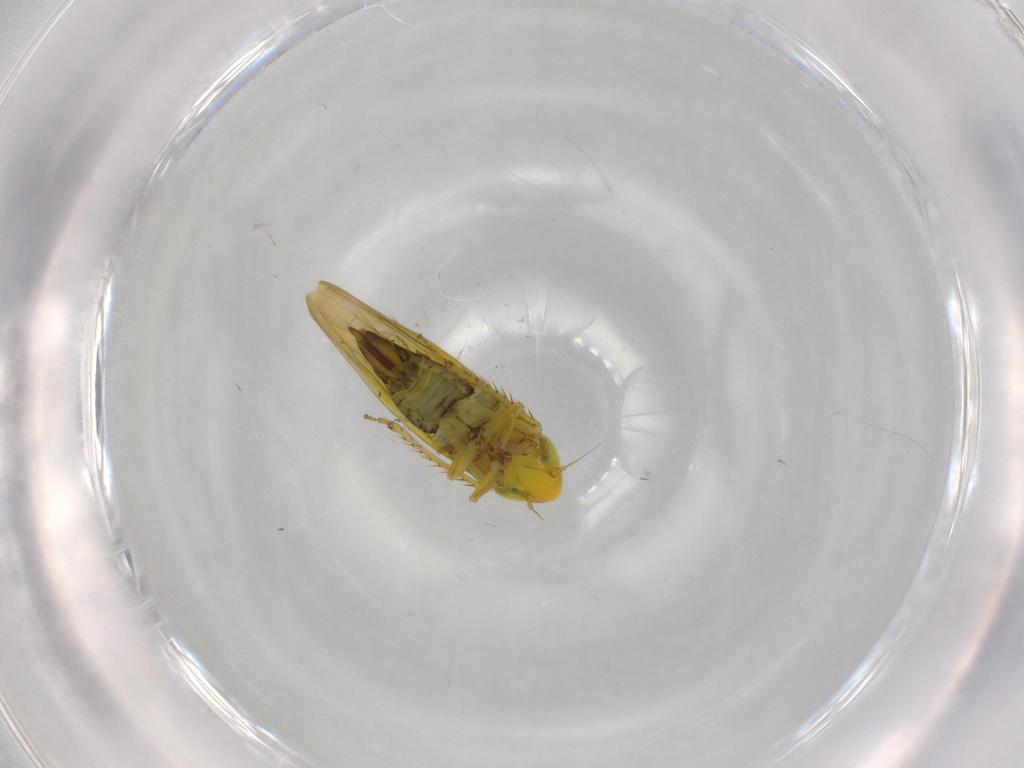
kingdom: Animalia
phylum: Arthropoda
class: Insecta
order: Hemiptera
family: Cicadellidae
